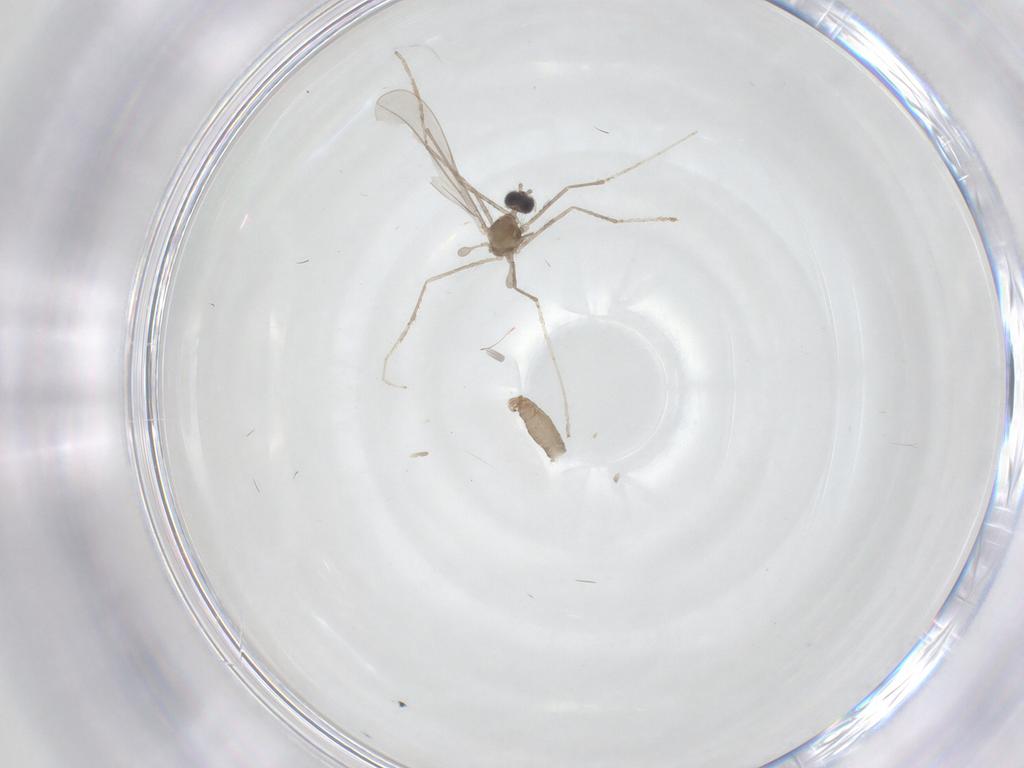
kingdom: Animalia
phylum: Arthropoda
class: Insecta
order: Diptera
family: Cecidomyiidae
